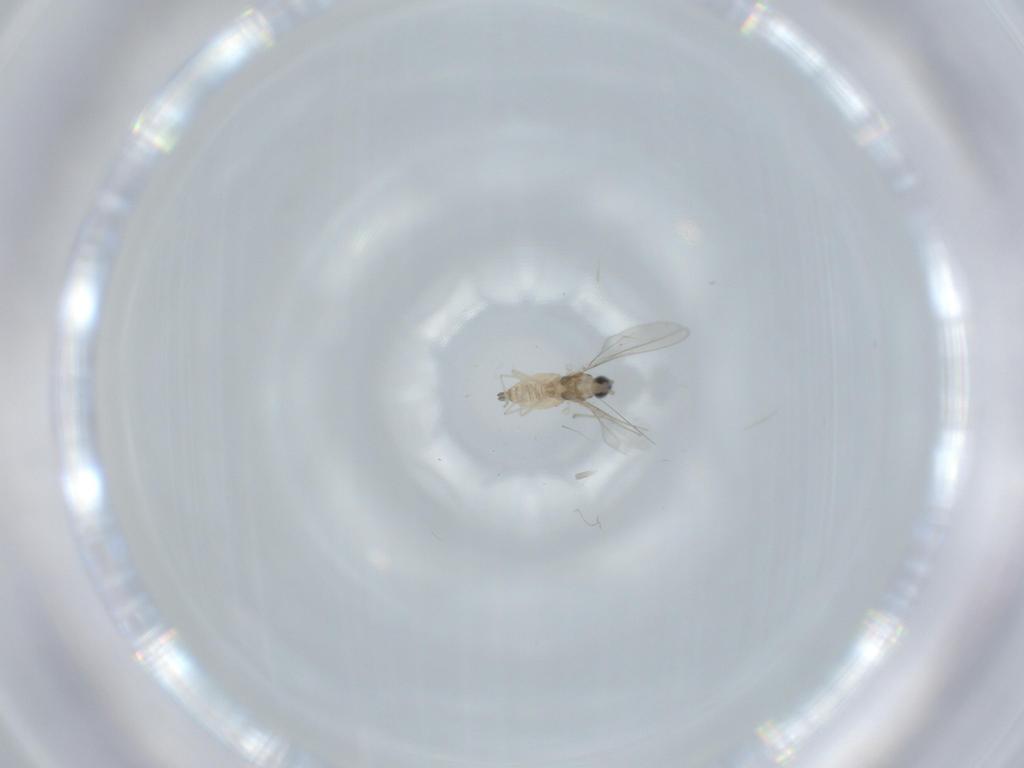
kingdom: Animalia
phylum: Arthropoda
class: Insecta
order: Diptera
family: Cecidomyiidae
